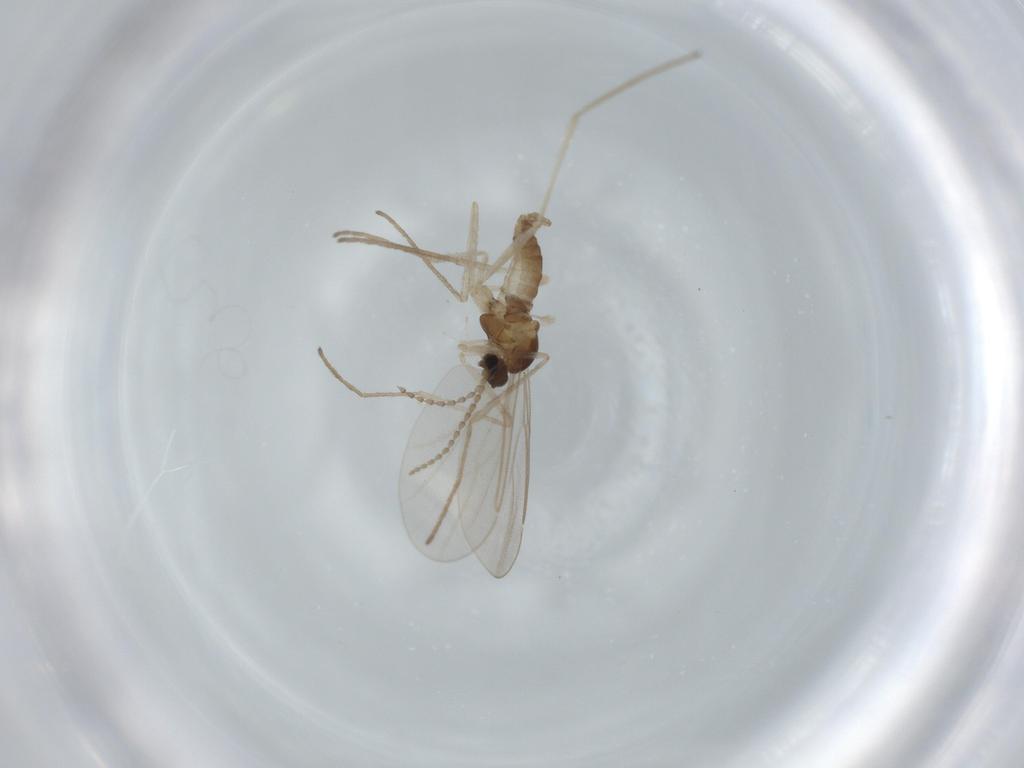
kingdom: Animalia
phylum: Arthropoda
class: Insecta
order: Diptera
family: Cecidomyiidae
